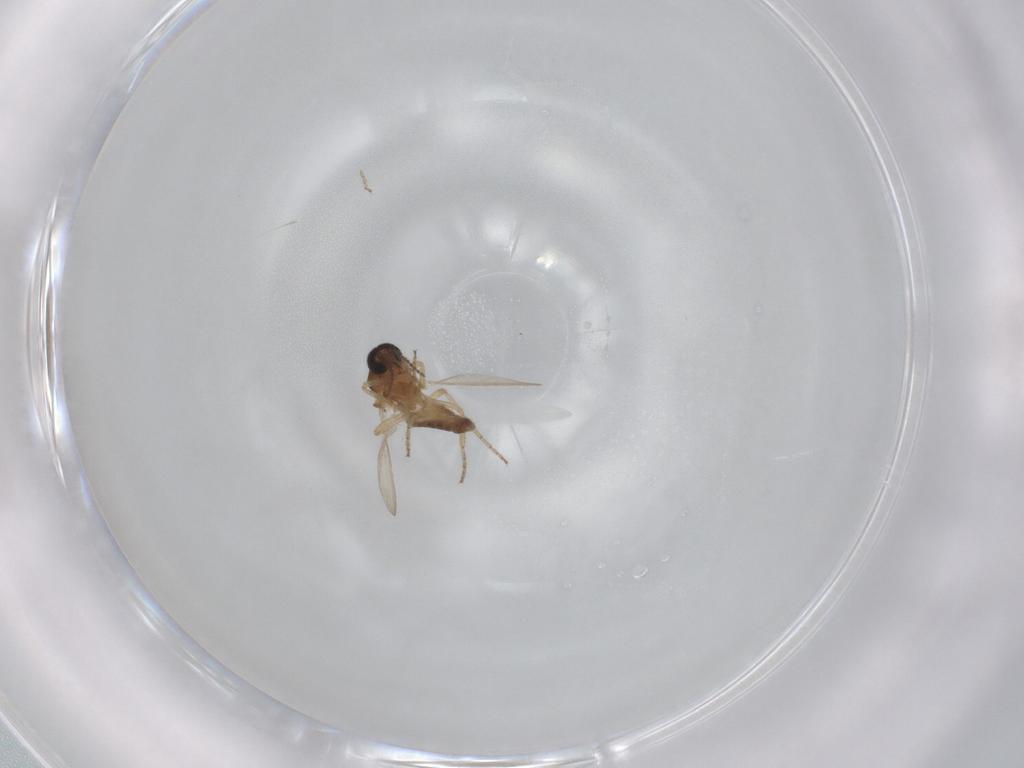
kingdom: Animalia
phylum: Arthropoda
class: Insecta
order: Diptera
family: Ceratopogonidae
